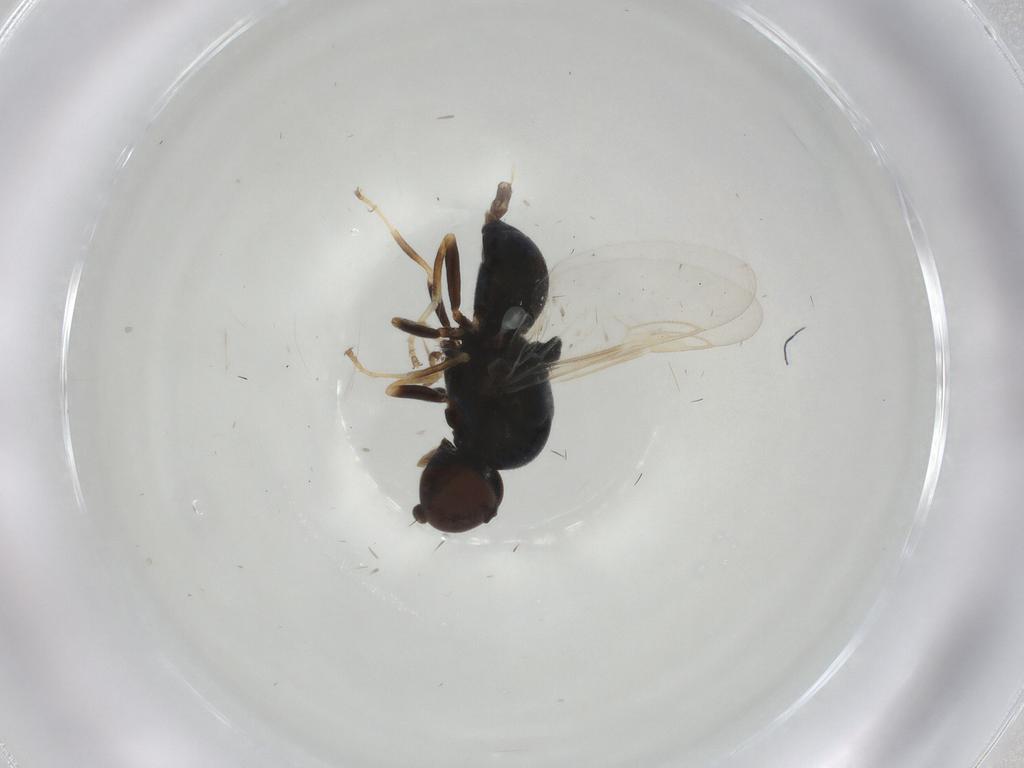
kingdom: Animalia
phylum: Arthropoda
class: Insecta
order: Diptera
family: Stratiomyidae
